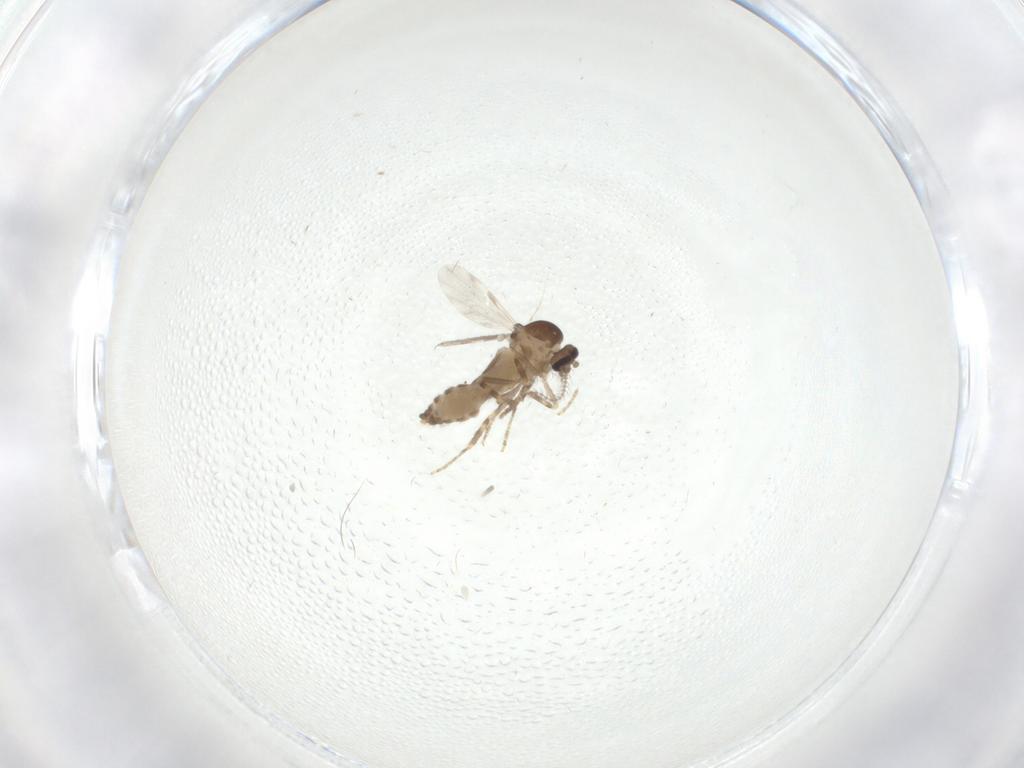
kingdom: Animalia
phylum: Arthropoda
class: Insecta
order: Diptera
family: Ceratopogonidae
